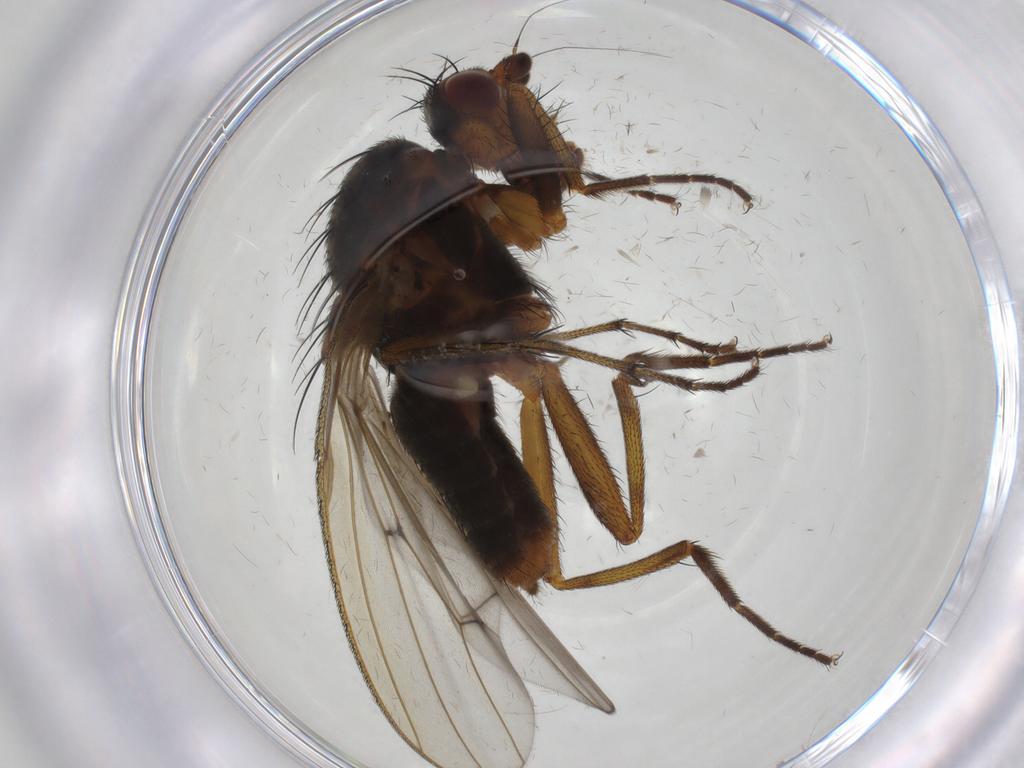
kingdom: Animalia
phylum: Arthropoda
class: Insecta
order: Diptera
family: Heleomyzidae
